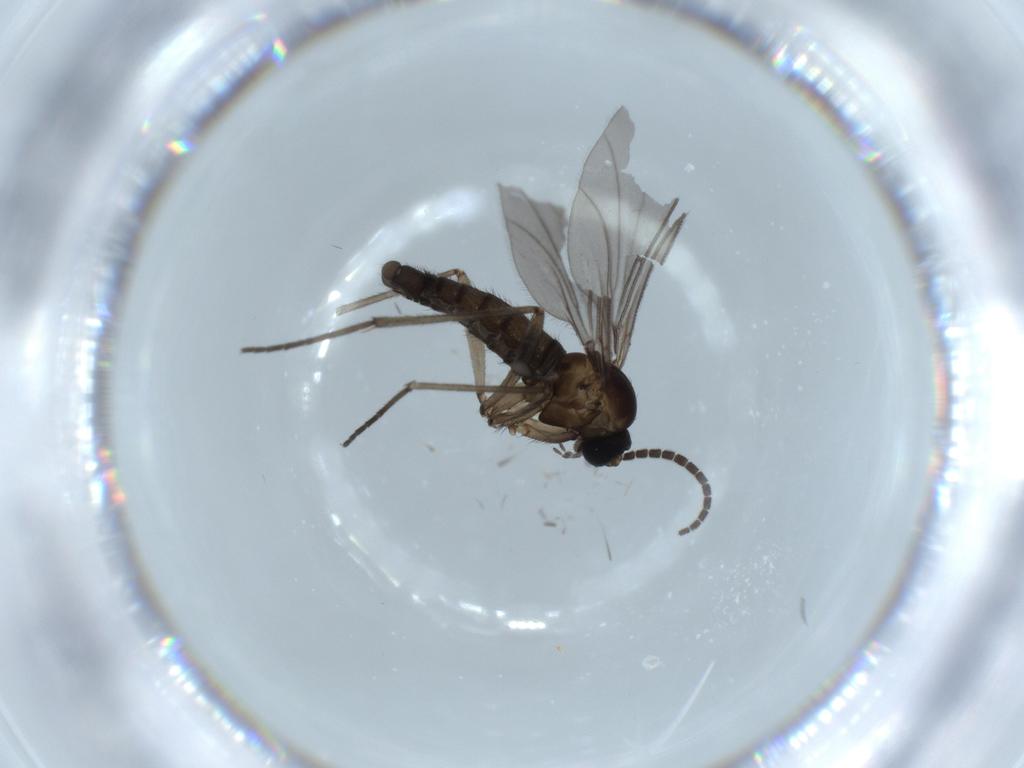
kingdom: Animalia
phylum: Arthropoda
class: Insecta
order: Diptera
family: Sciaridae
